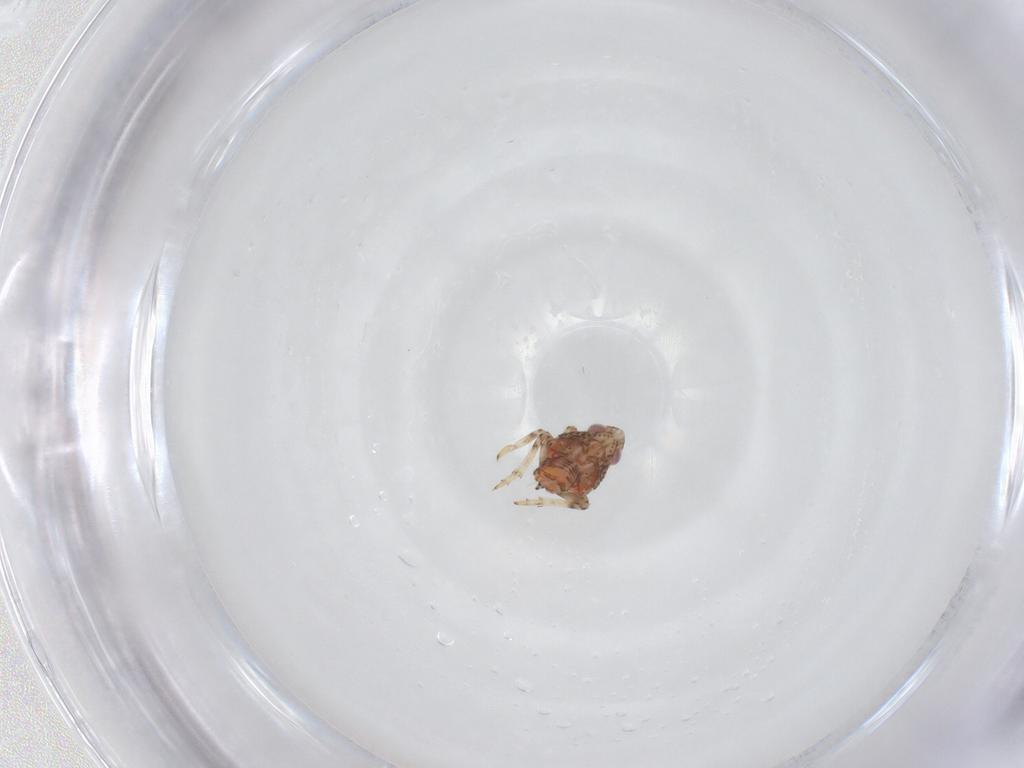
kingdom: Animalia
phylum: Arthropoda
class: Insecta
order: Hemiptera
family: Issidae
